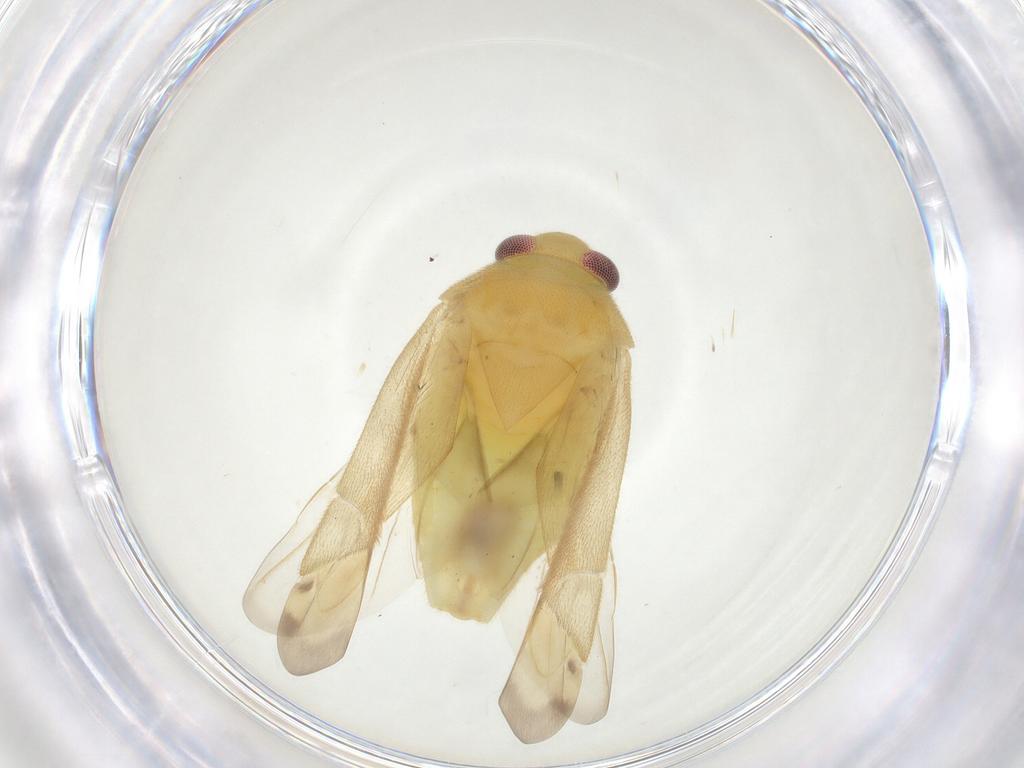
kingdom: Animalia
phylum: Arthropoda
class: Insecta
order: Hemiptera
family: Miridae
